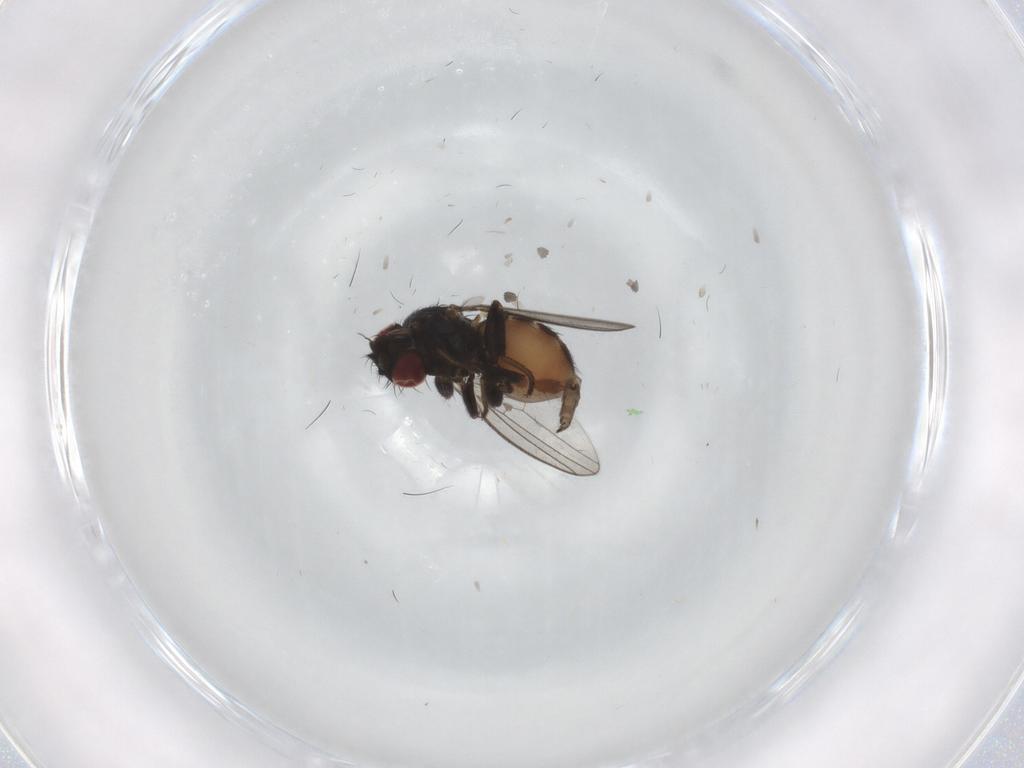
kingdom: Animalia
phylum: Arthropoda
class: Insecta
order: Diptera
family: Milichiidae
